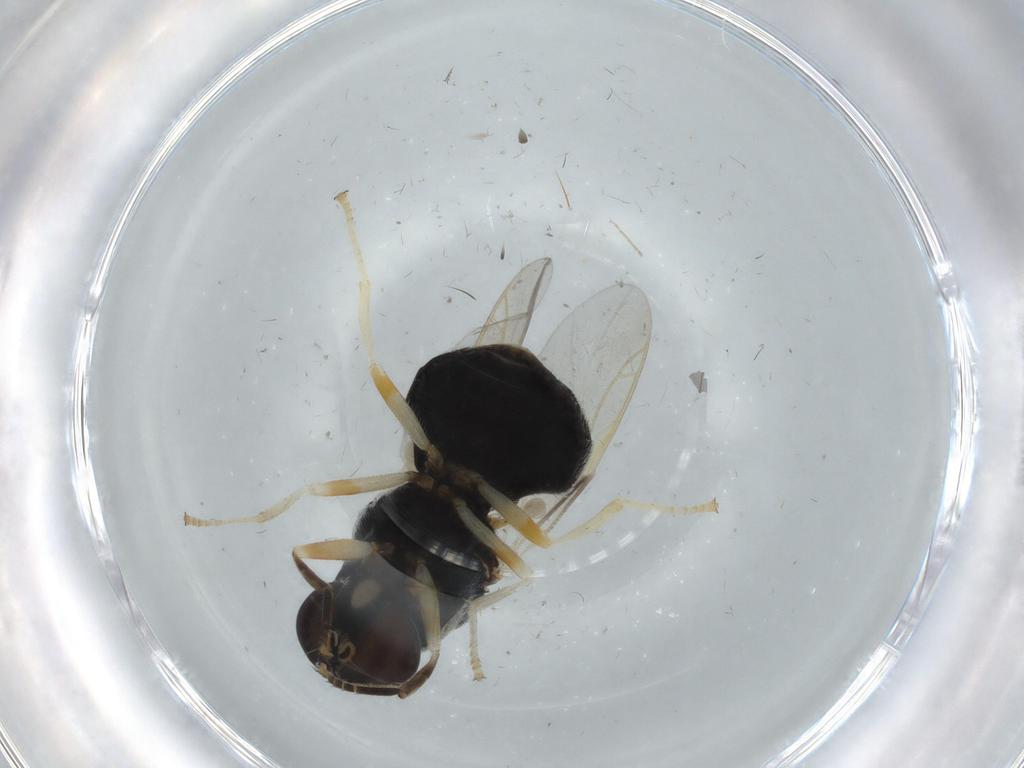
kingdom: Animalia
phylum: Arthropoda
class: Insecta
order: Diptera
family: Stratiomyidae
